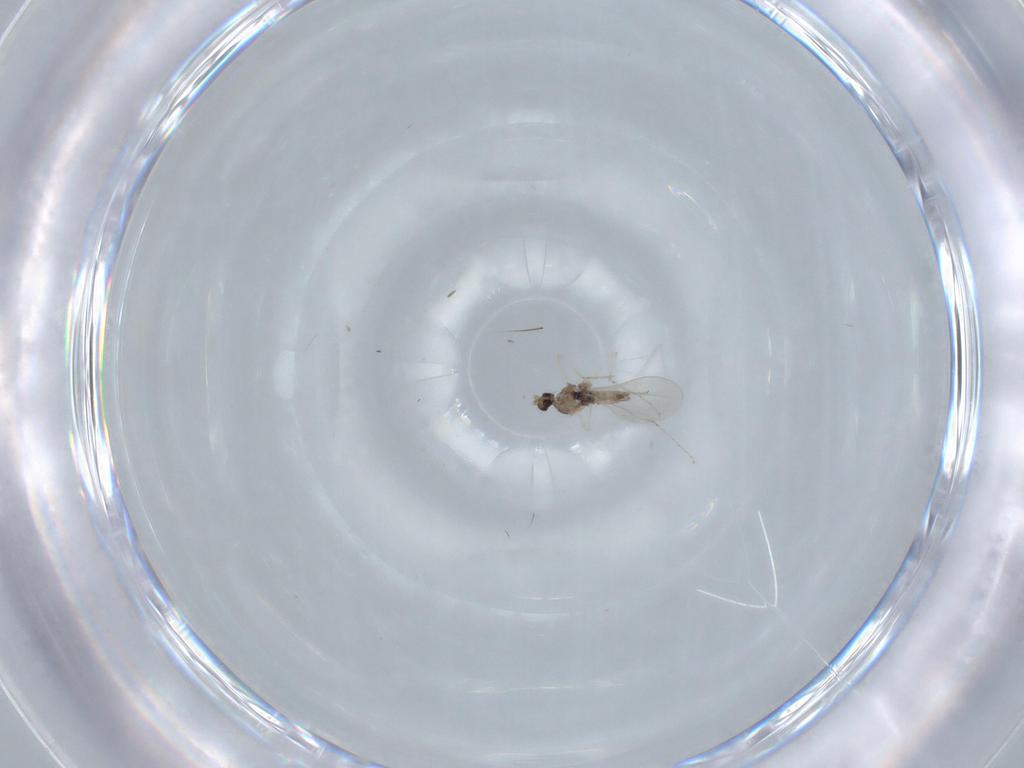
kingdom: Animalia
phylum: Arthropoda
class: Insecta
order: Diptera
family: Cecidomyiidae
